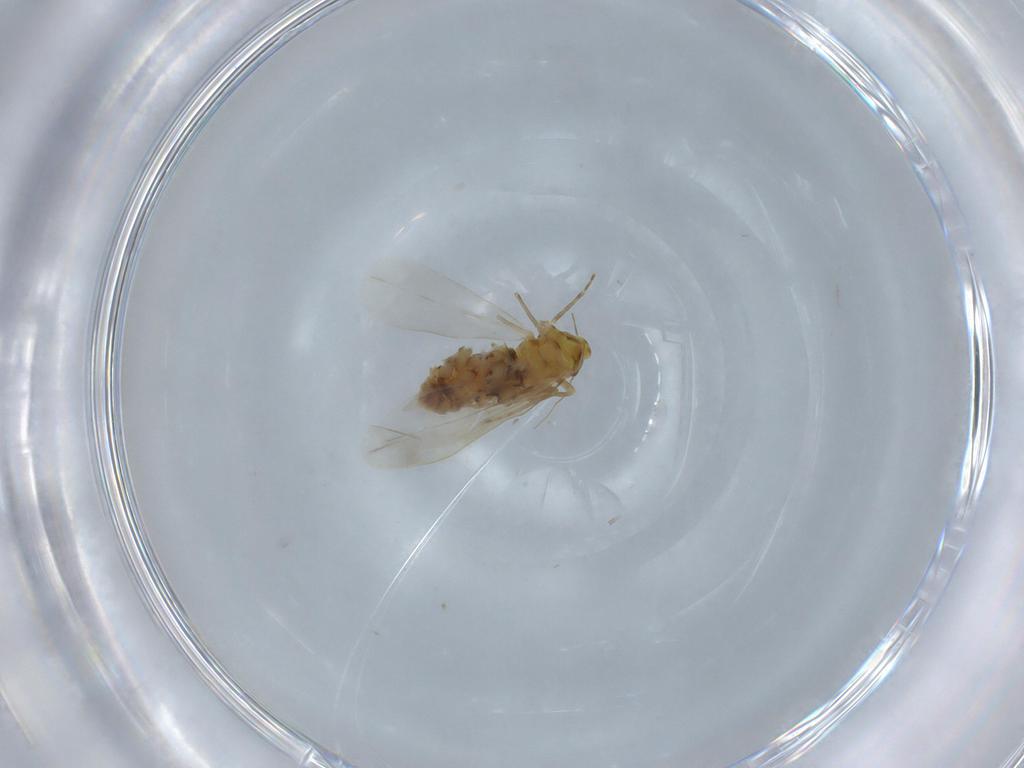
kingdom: Animalia
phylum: Arthropoda
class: Insecta
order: Hemiptera
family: Aleyrodidae
